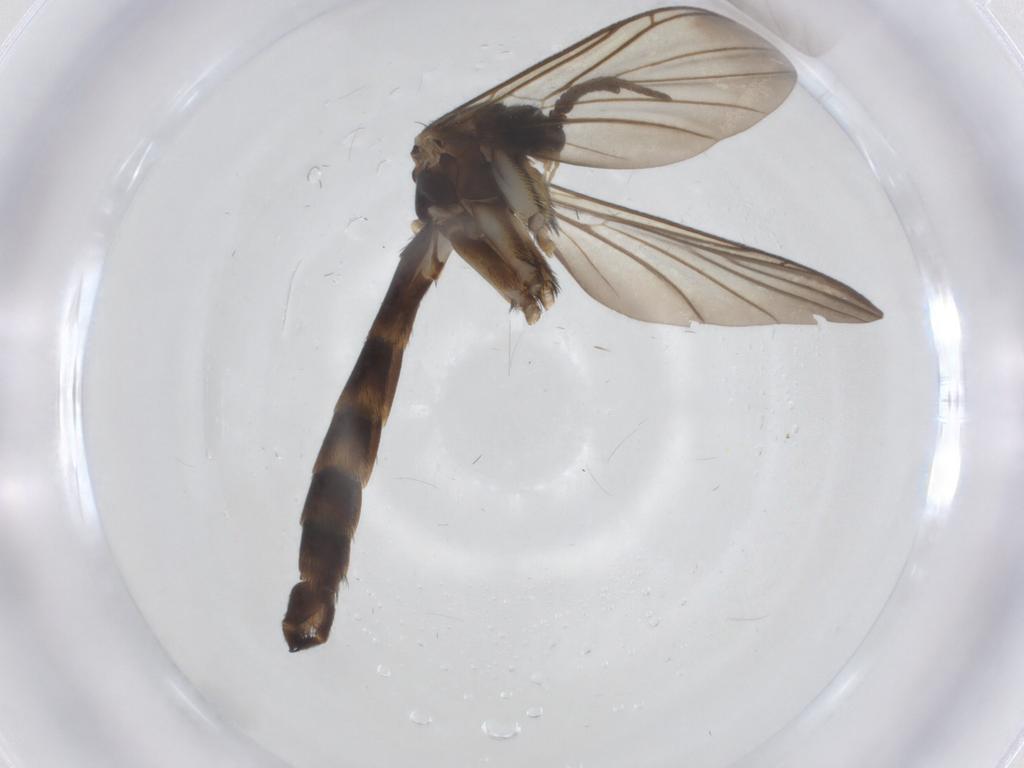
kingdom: Animalia
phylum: Arthropoda
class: Insecta
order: Diptera
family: Keroplatidae
